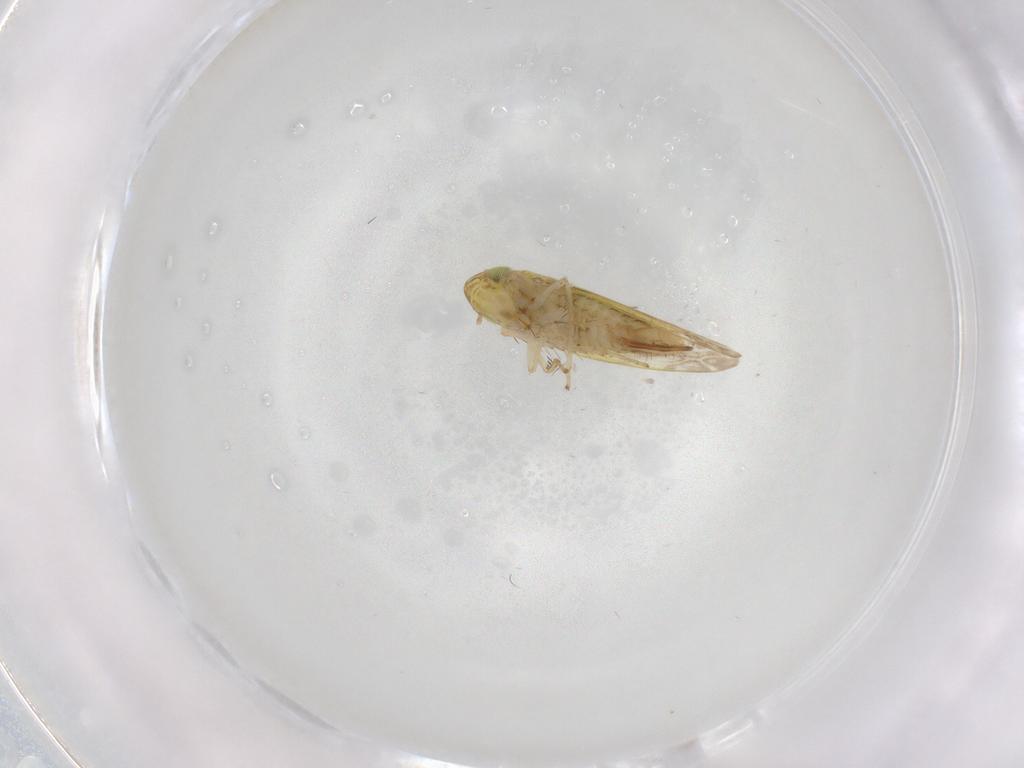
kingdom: Animalia
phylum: Arthropoda
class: Insecta
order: Hemiptera
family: Cicadellidae
